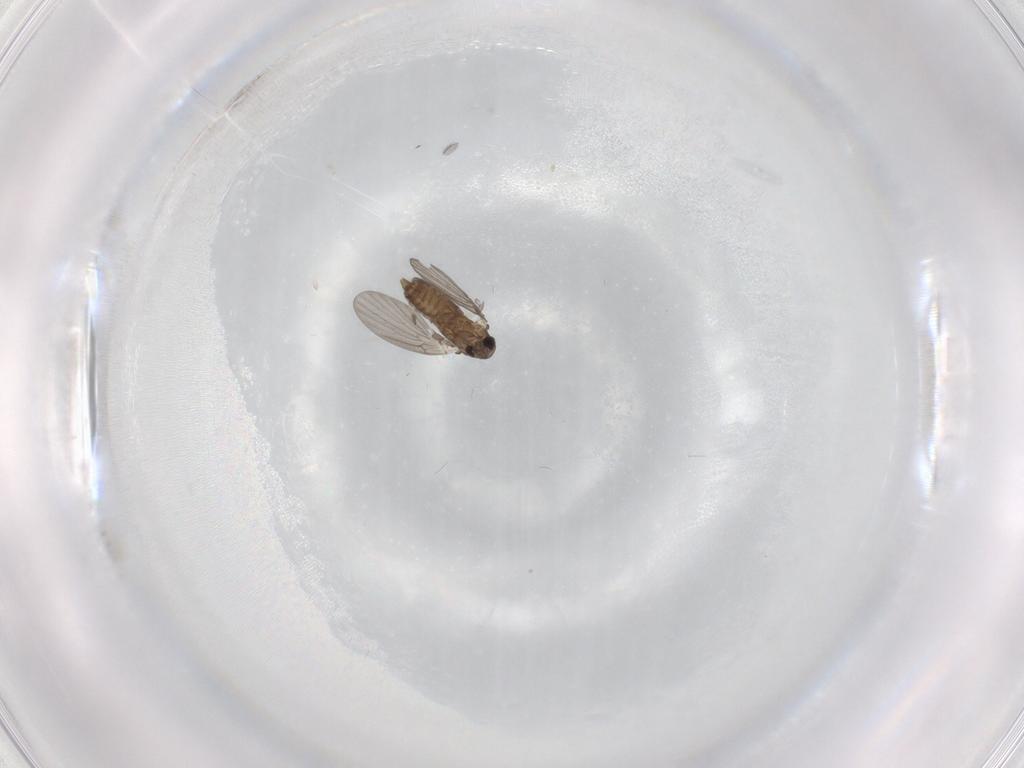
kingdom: Animalia
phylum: Arthropoda
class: Insecta
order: Diptera
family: Sciaridae
